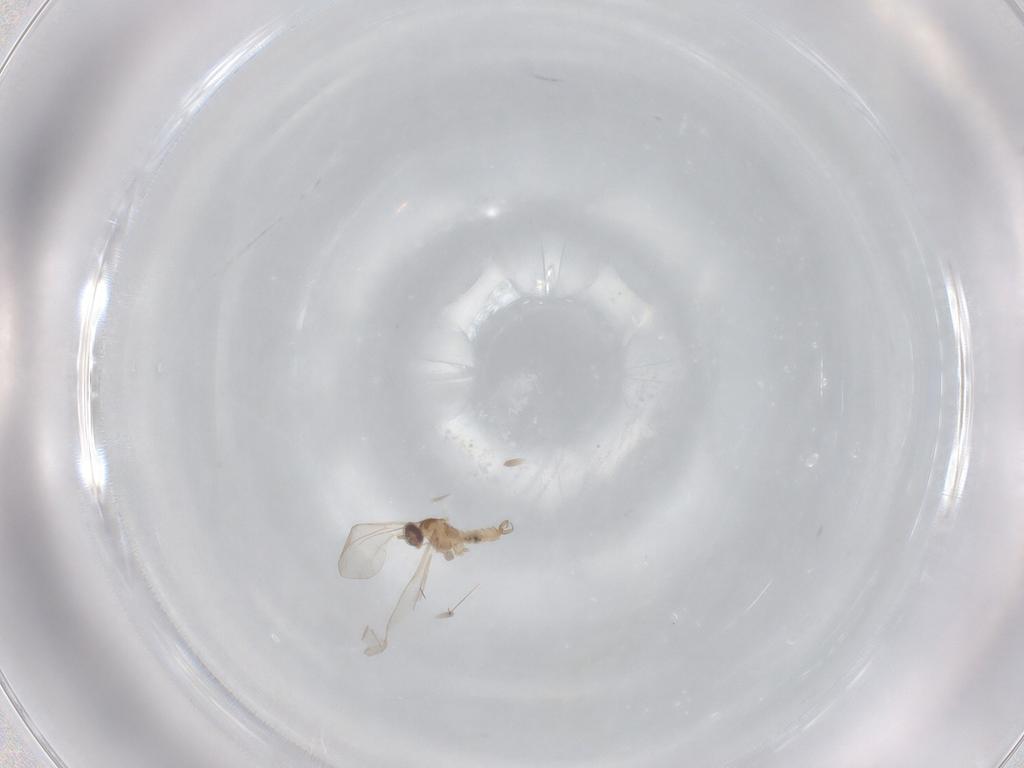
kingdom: Animalia
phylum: Arthropoda
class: Insecta
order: Diptera
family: Cecidomyiidae
